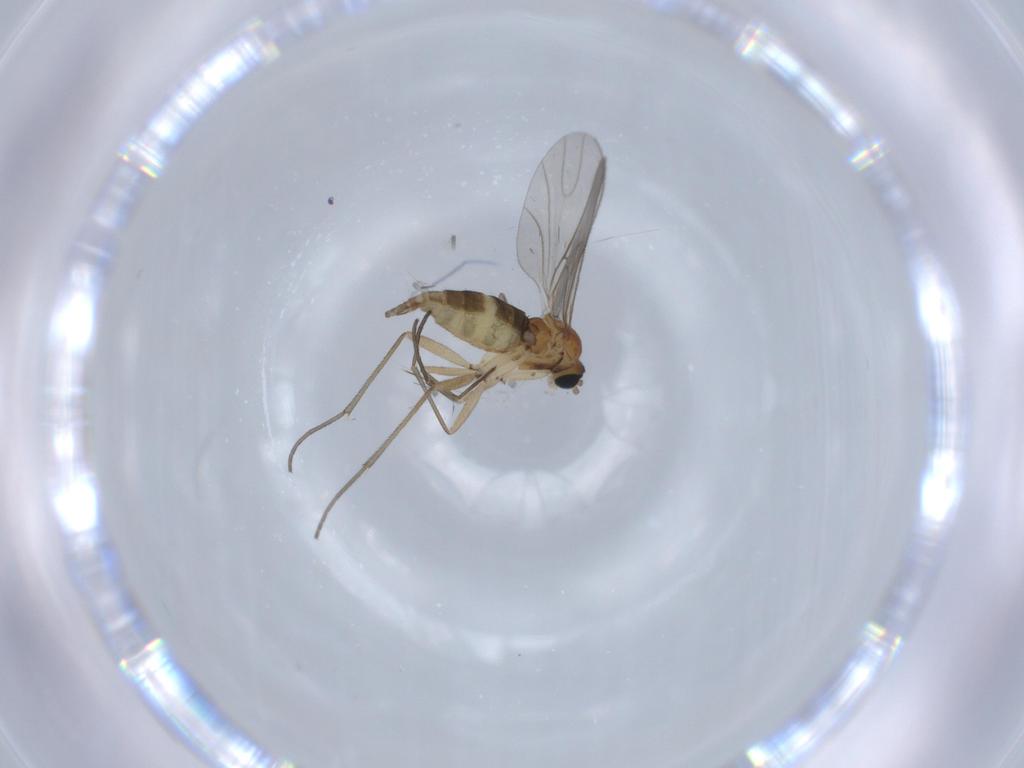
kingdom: Animalia
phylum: Arthropoda
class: Insecta
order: Diptera
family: Sciaridae
